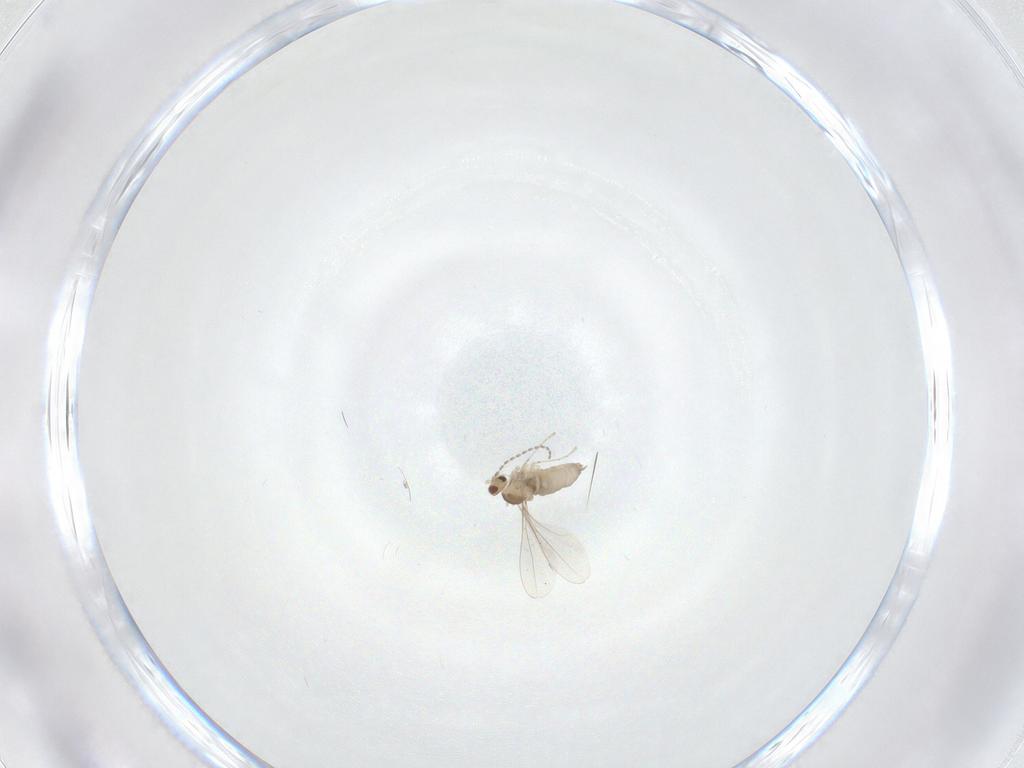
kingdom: Animalia
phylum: Arthropoda
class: Insecta
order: Diptera
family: Cecidomyiidae
